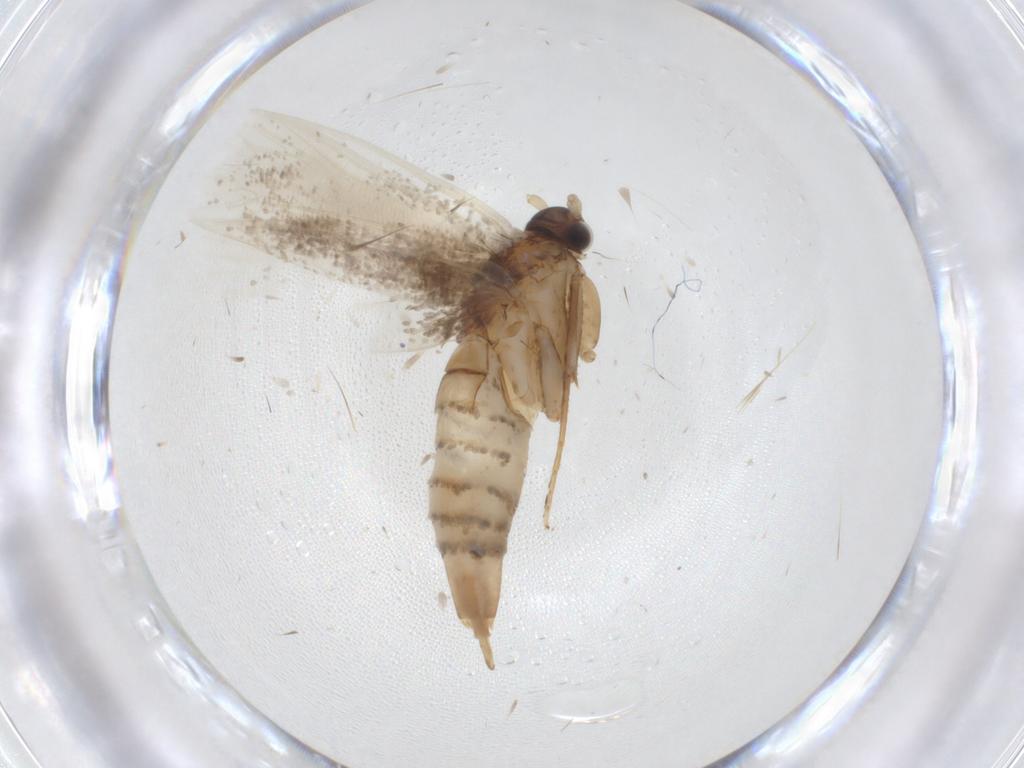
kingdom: Animalia
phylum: Arthropoda
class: Insecta
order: Lepidoptera
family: Tineidae
